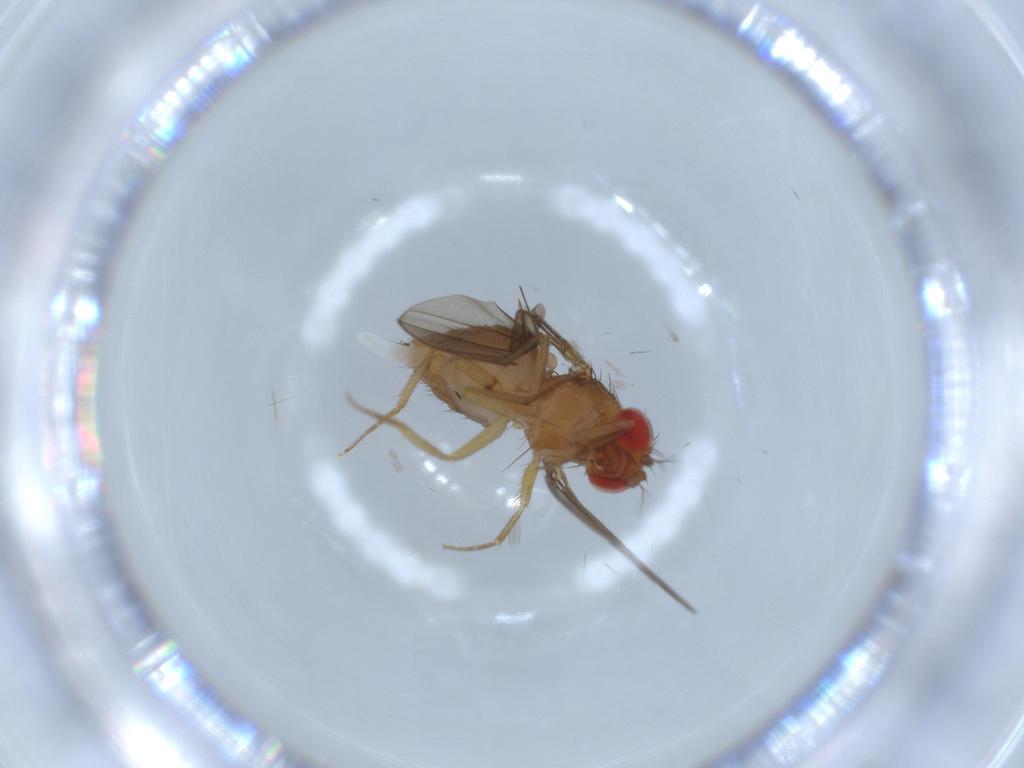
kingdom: Animalia
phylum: Arthropoda
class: Insecta
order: Diptera
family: Drosophilidae
